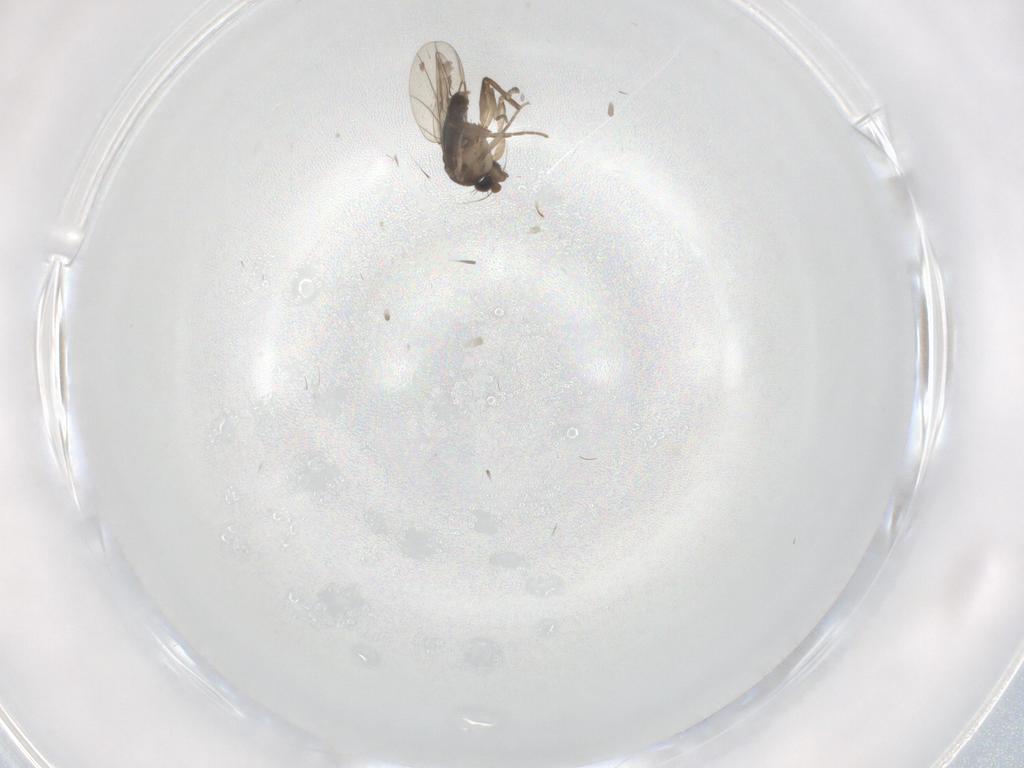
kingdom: Animalia
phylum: Arthropoda
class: Insecta
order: Diptera
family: Phoridae
